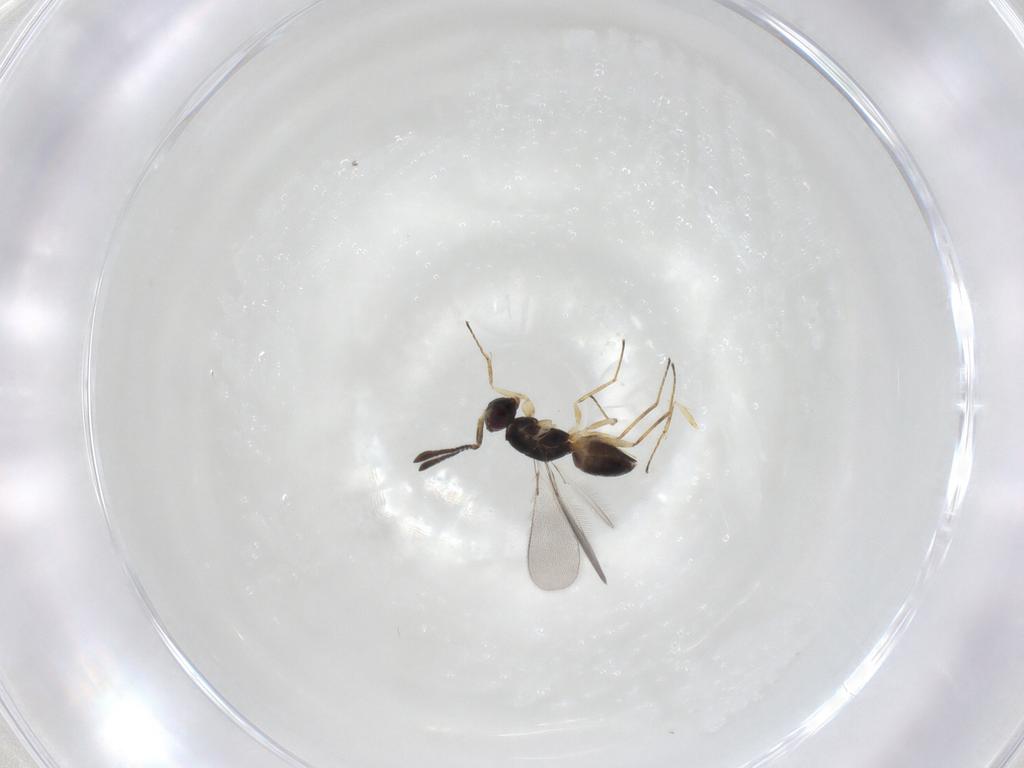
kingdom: Animalia
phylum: Arthropoda
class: Insecta
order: Hymenoptera
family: Mymaridae
